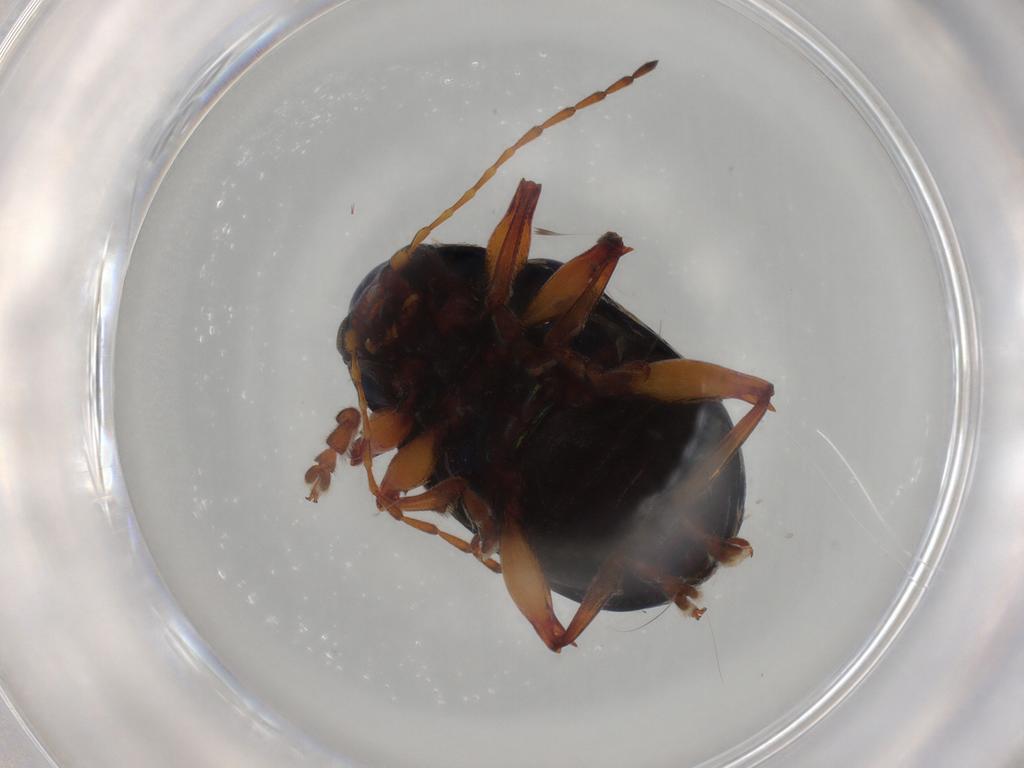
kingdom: Animalia
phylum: Arthropoda
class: Insecta
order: Coleoptera
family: Chrysomelidae
